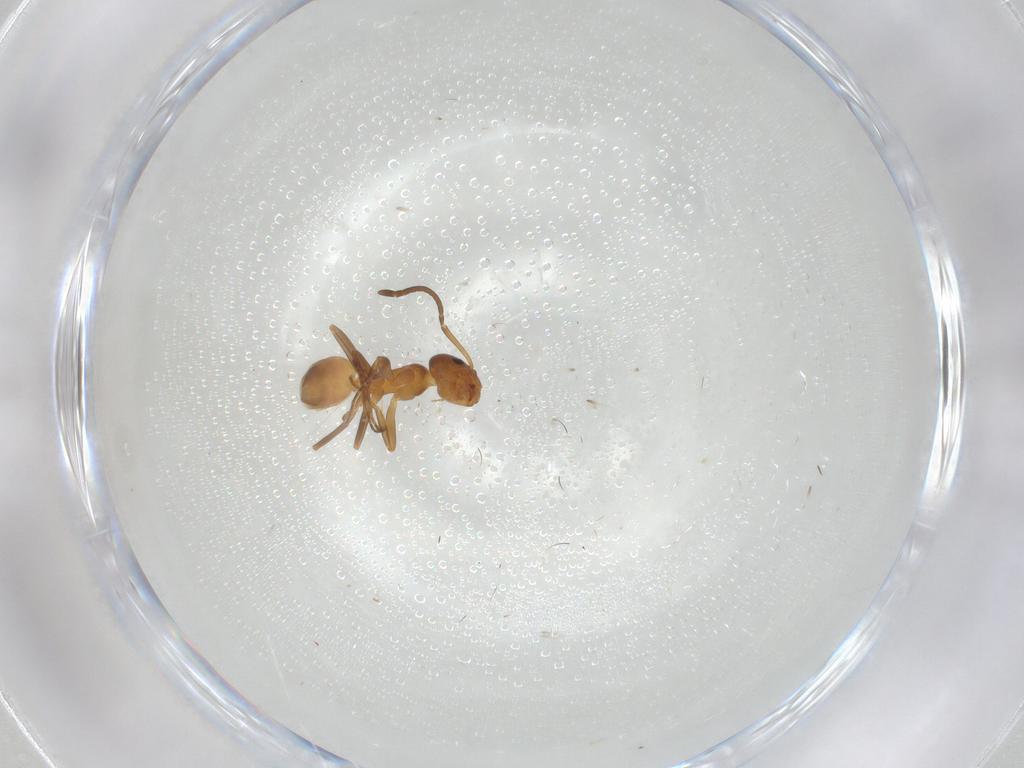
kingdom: Animalia
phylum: Arthropoda
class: Insecta
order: Hymenoptera
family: Formicidae
